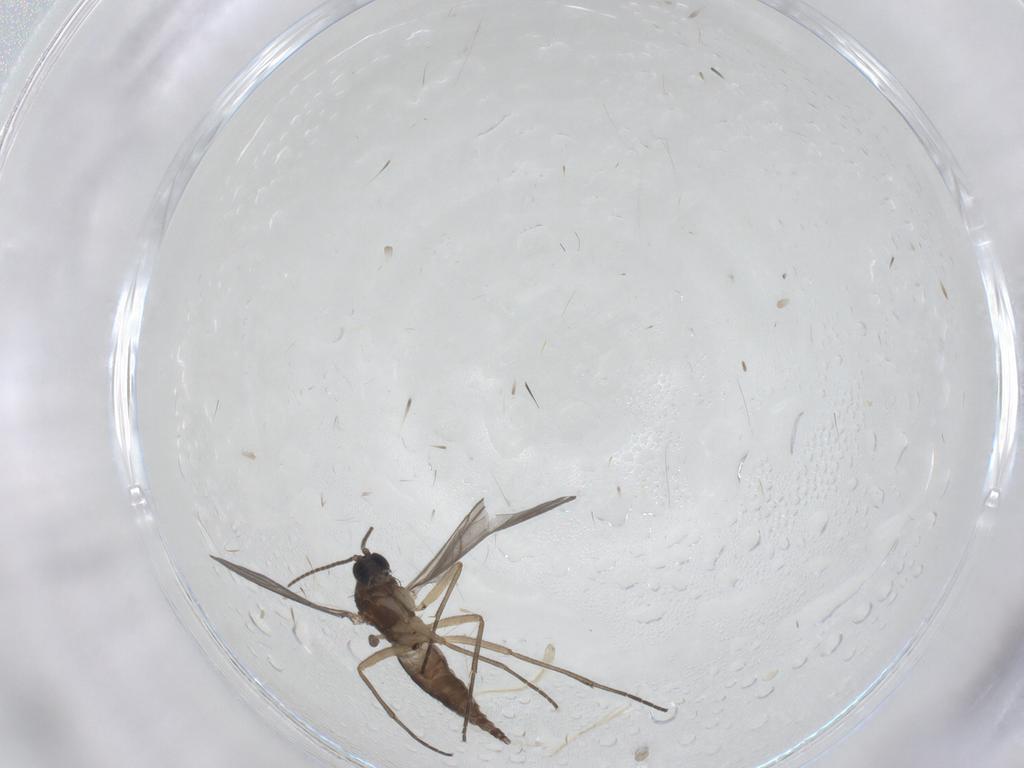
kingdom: Animalia
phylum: Arthropoda
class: Insecta
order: Diptera
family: Sciaridae
